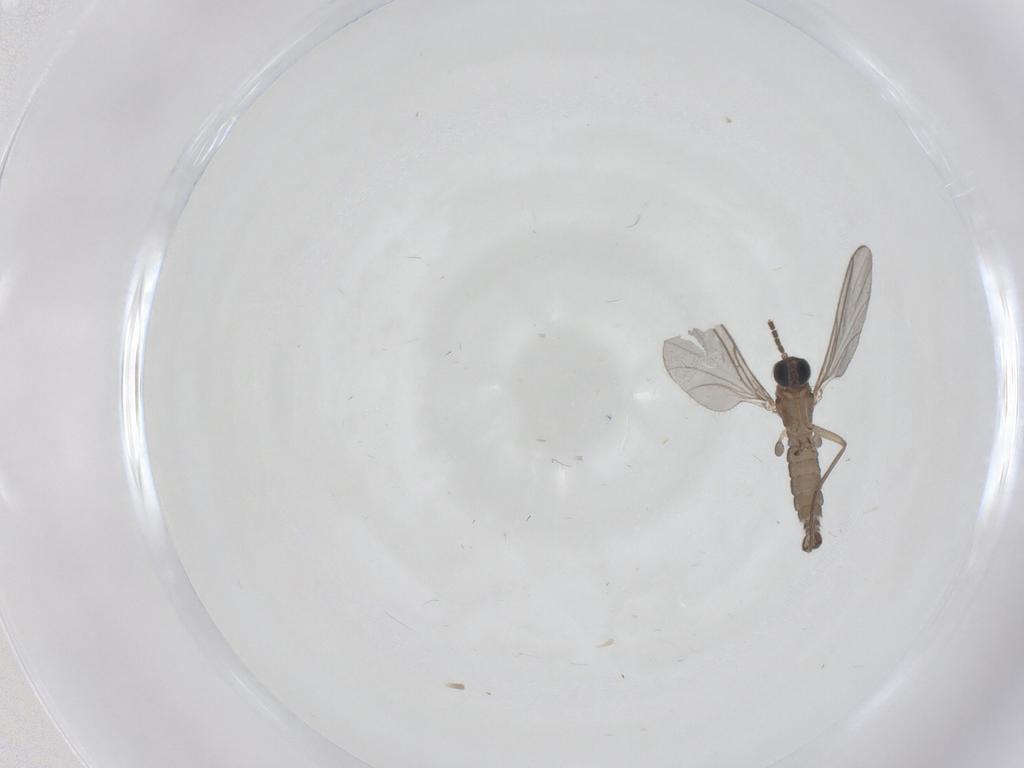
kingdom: Animalia
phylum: Arthropoda
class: Insecta
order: Diptera
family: Sciaridae
